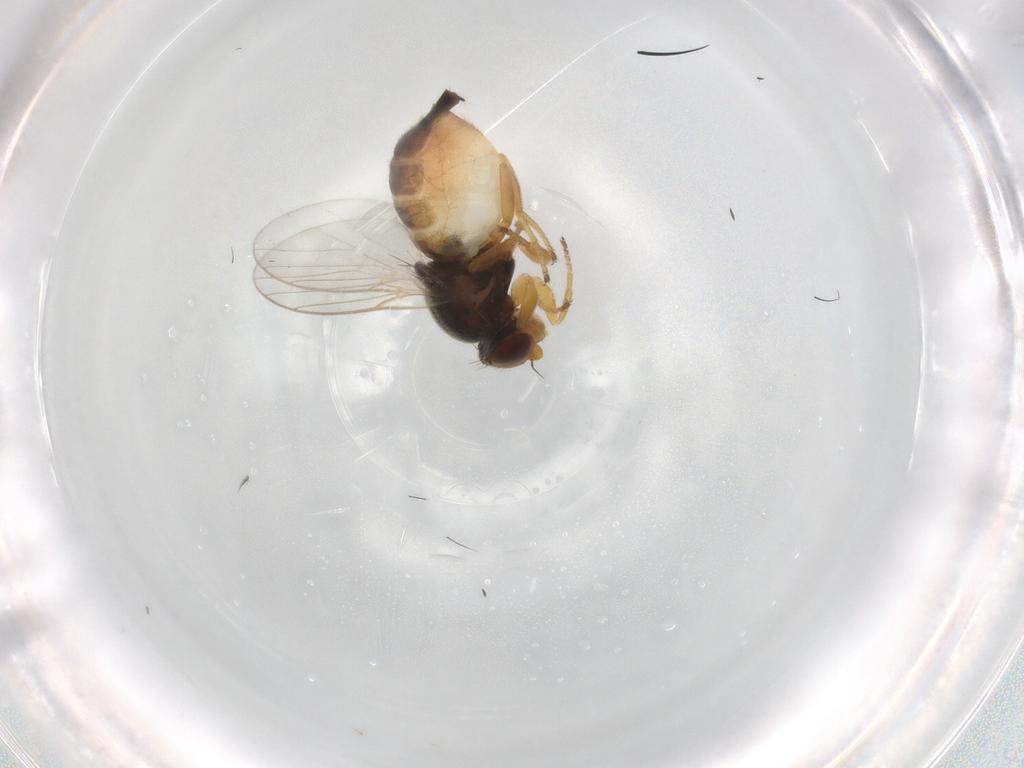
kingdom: Animalia
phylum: Arthropoda
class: Insecta
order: Diptera
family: Chloropidae
